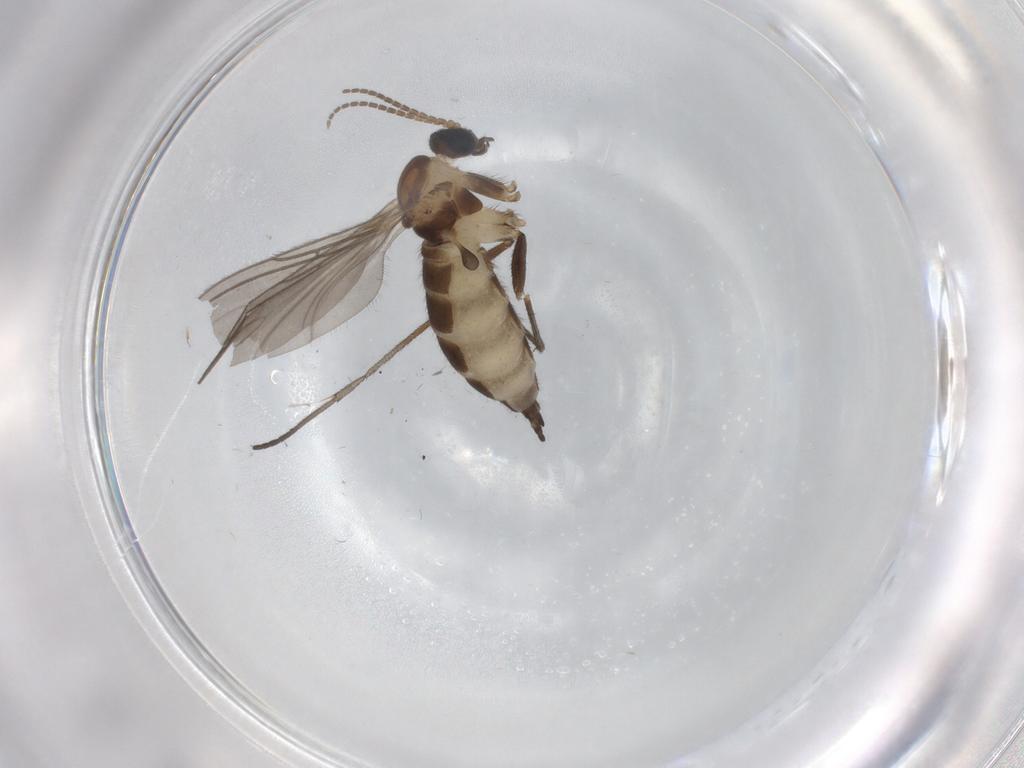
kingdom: Animalia
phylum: Arthropoda
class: Insecta
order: Diptera
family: Sciaridae
